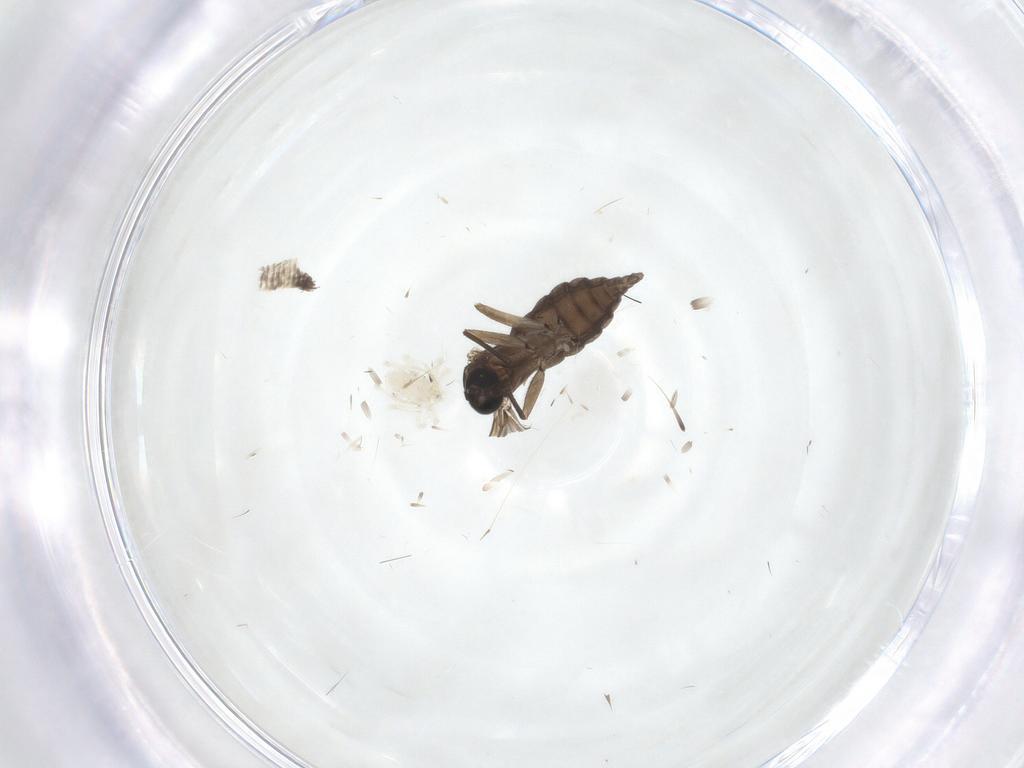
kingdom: Animalia
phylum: Arthropoda
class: Insecta
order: Diptera
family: Sciaridae
